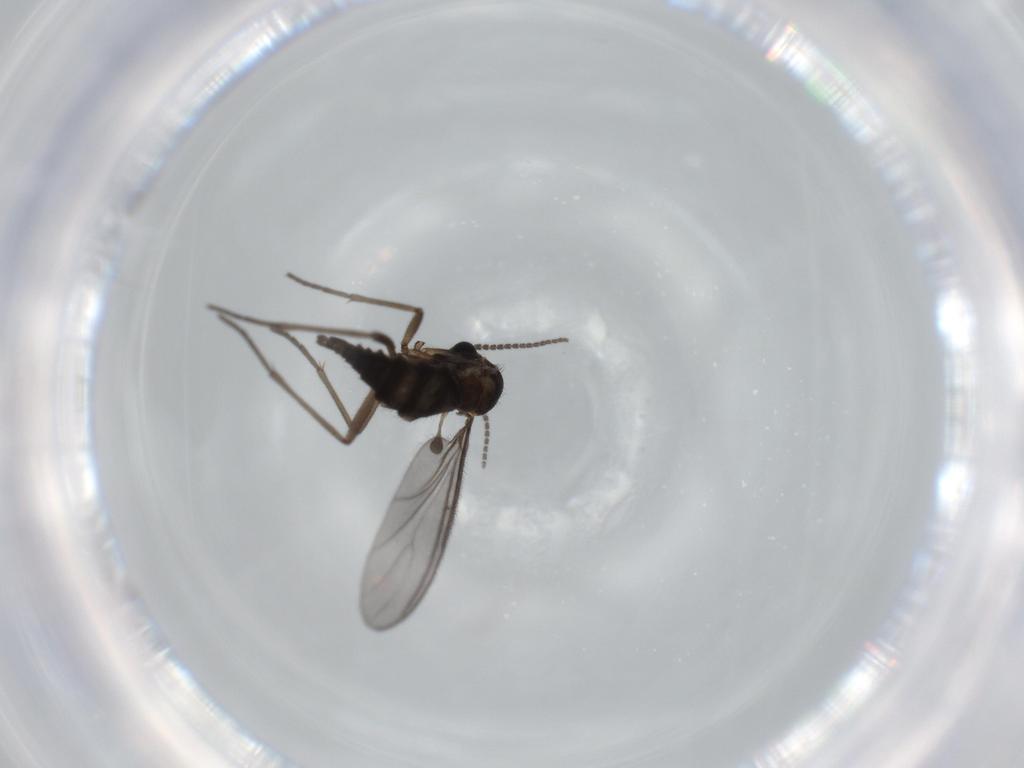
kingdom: Animalia
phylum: Arthropoda
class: Insecta
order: Diptera
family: Sciaridae
